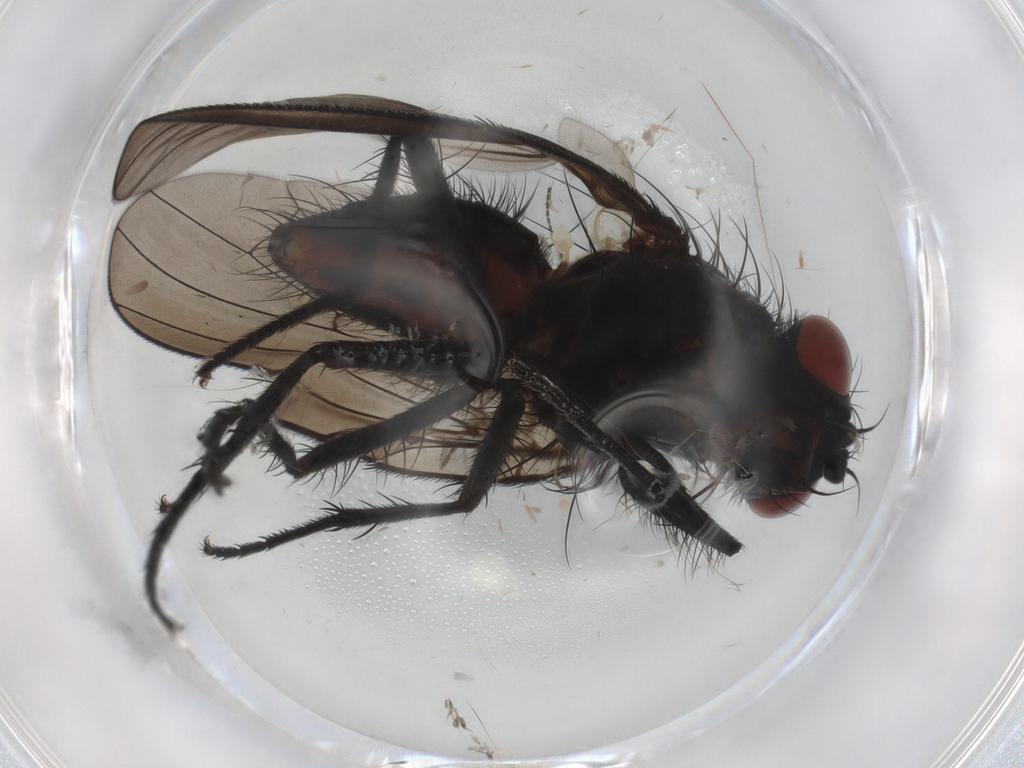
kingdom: Animalia
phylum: Arthropoda
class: Insecta
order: Diptera
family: Anthomyiidae
